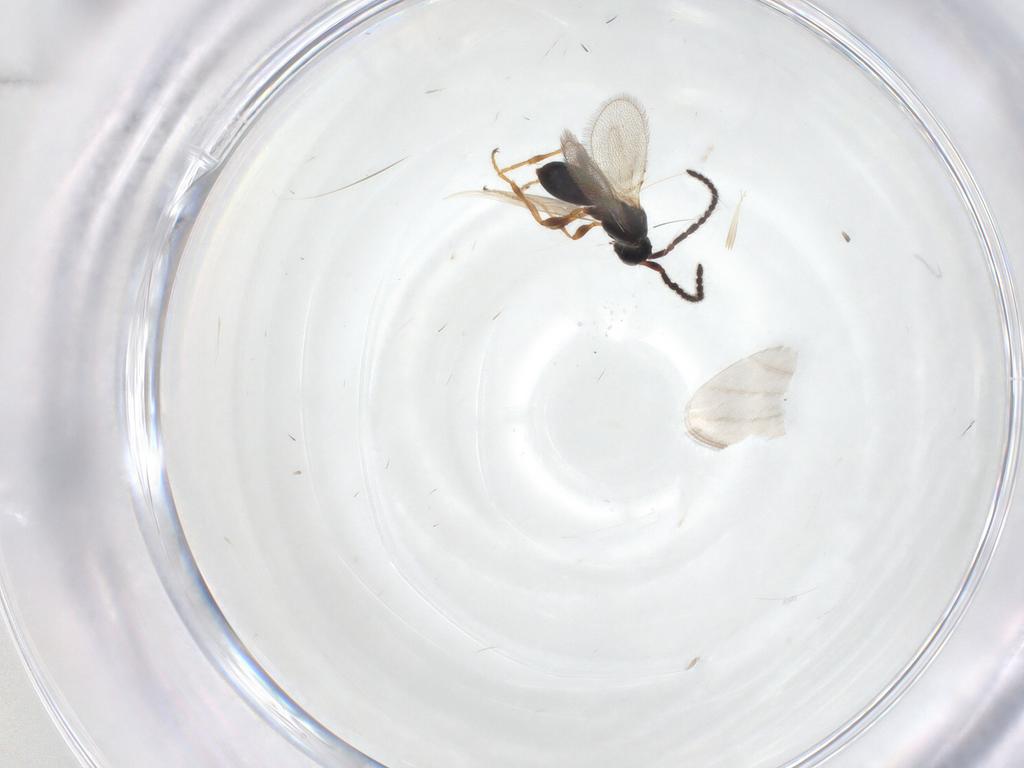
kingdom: Animalia
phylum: Arthropoda
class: Insecta
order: Hymenoptera
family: Diapriidae
